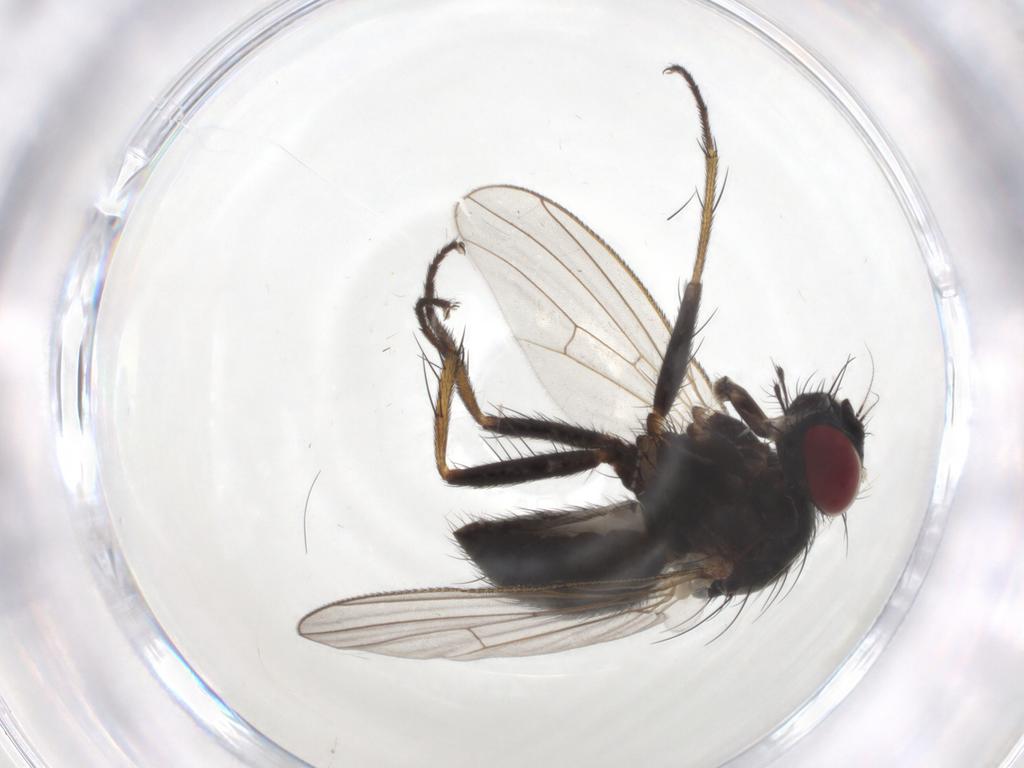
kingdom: Animalia
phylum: Arthropoda
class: Insecta
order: Diptera
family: Psychodidae
